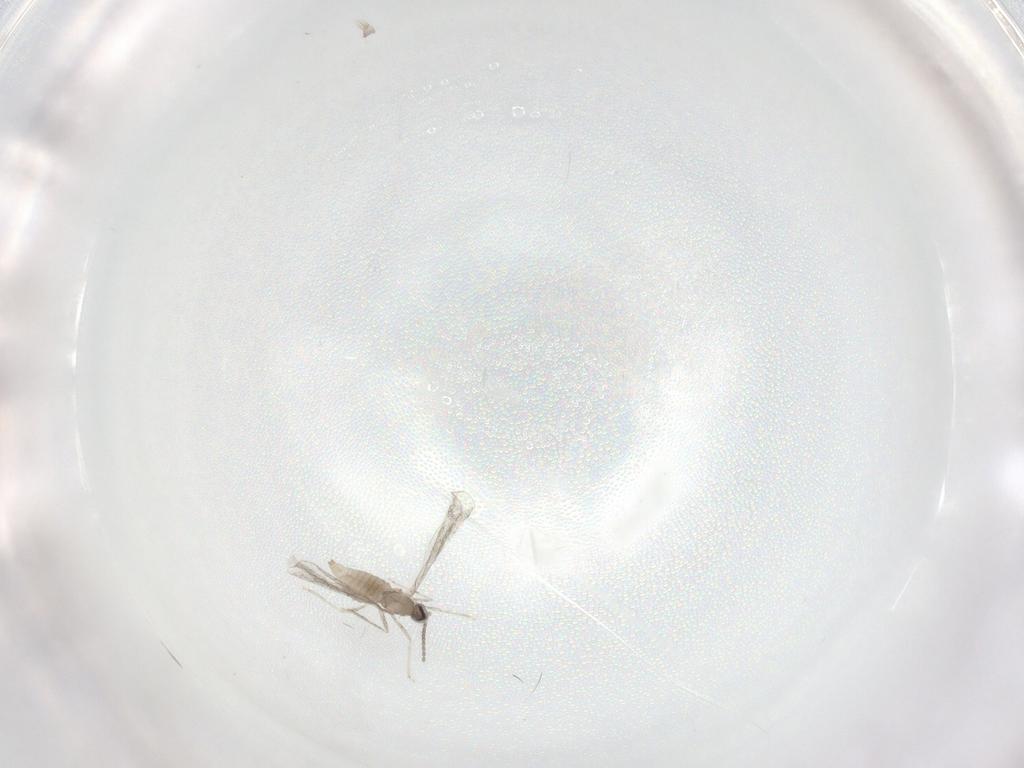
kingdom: Animalia
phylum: Arthropoda
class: Insecta
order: Diptera
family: Cecidomyiidae
